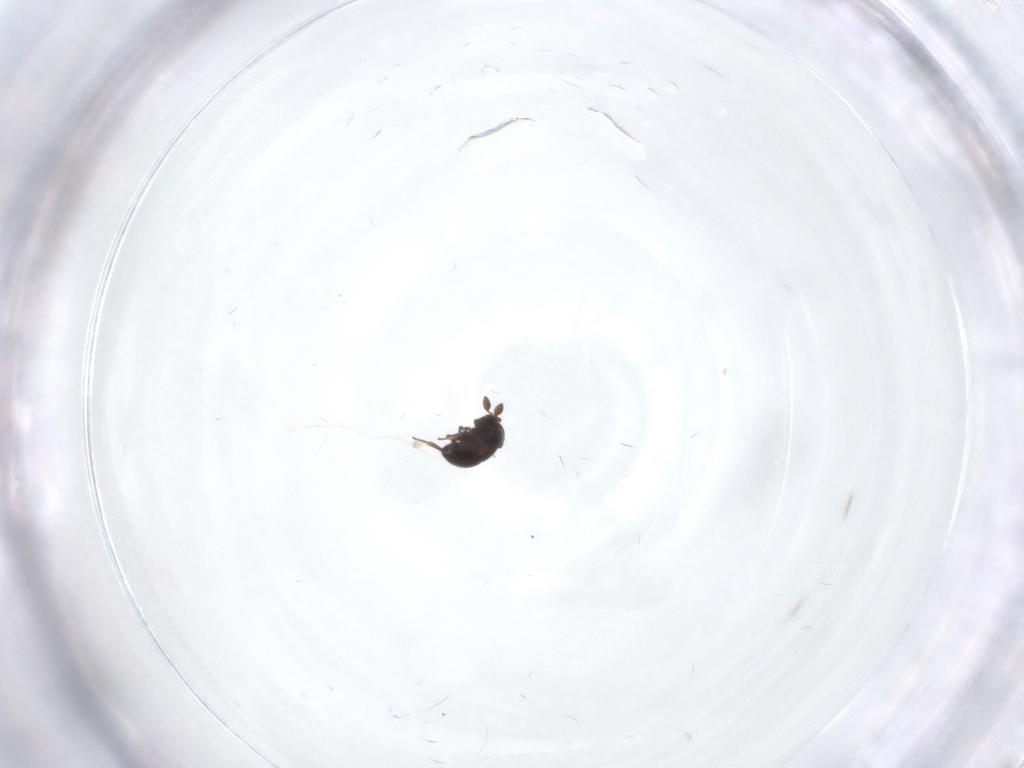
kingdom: Animalia
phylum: Arthropoda
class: Insecta
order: Hymenoptera
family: Scelionidae
